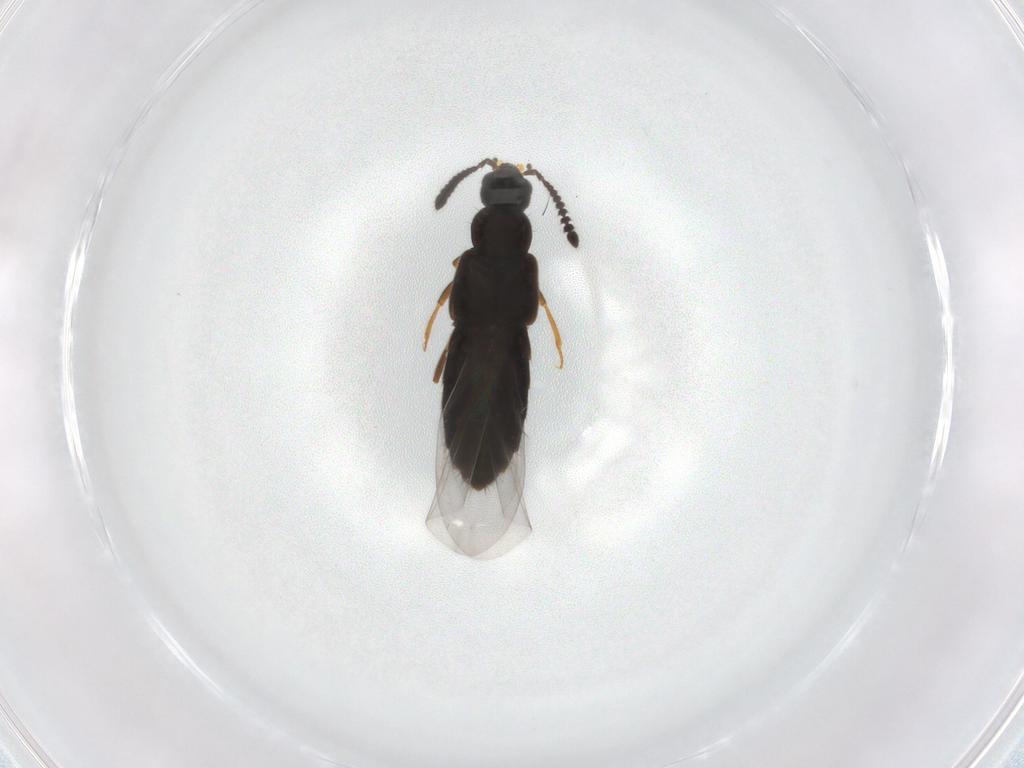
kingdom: Animalia
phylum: Arthropoda
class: Insecta
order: Coleoptera
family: Staphylinidae
